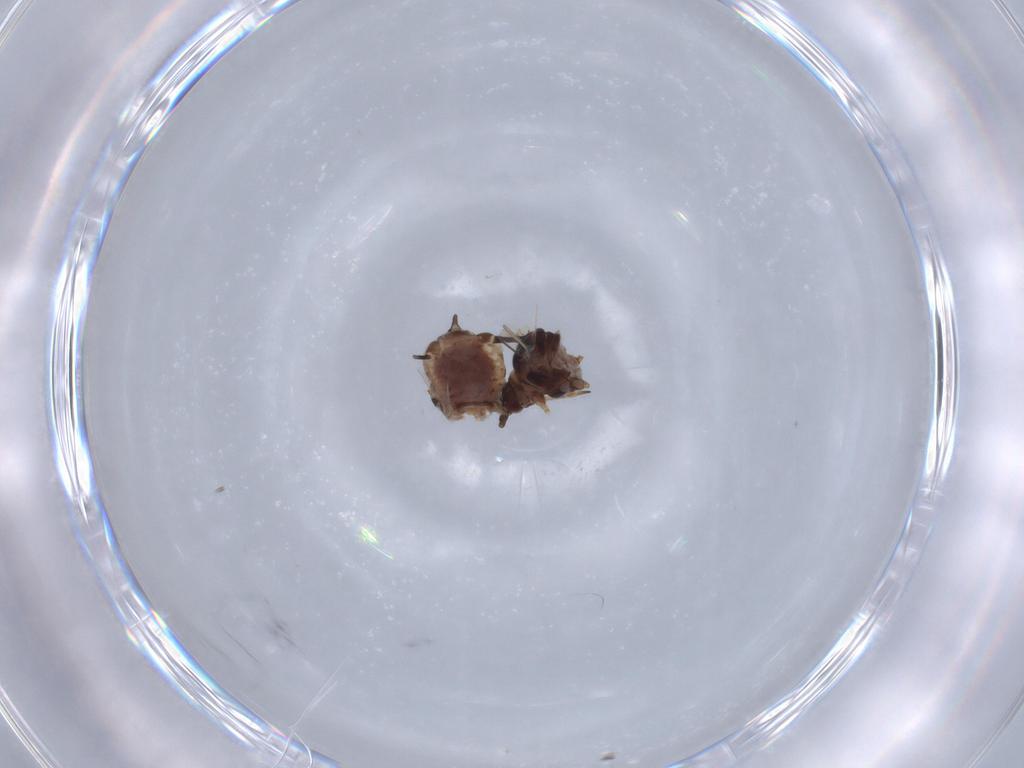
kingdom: Animalia
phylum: Arthropoda
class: Insecta
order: Hemiptera
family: Aphididae
